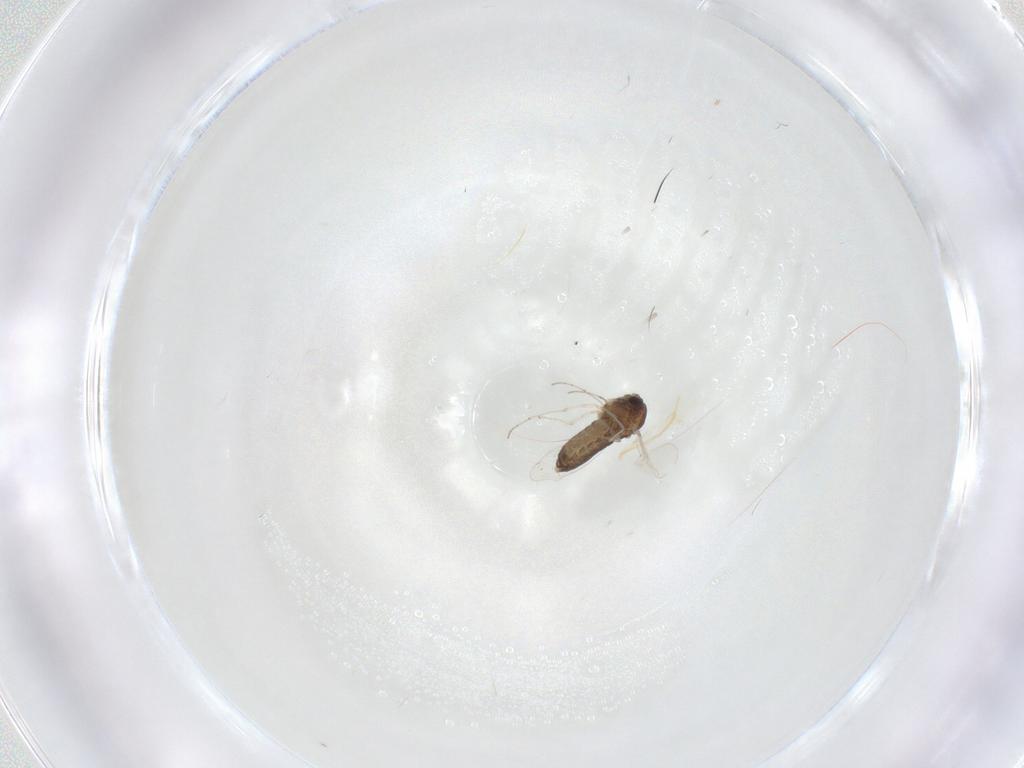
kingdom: Animalia
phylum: Arthropoda
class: Insecta
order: Diptera
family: Chironomidae
